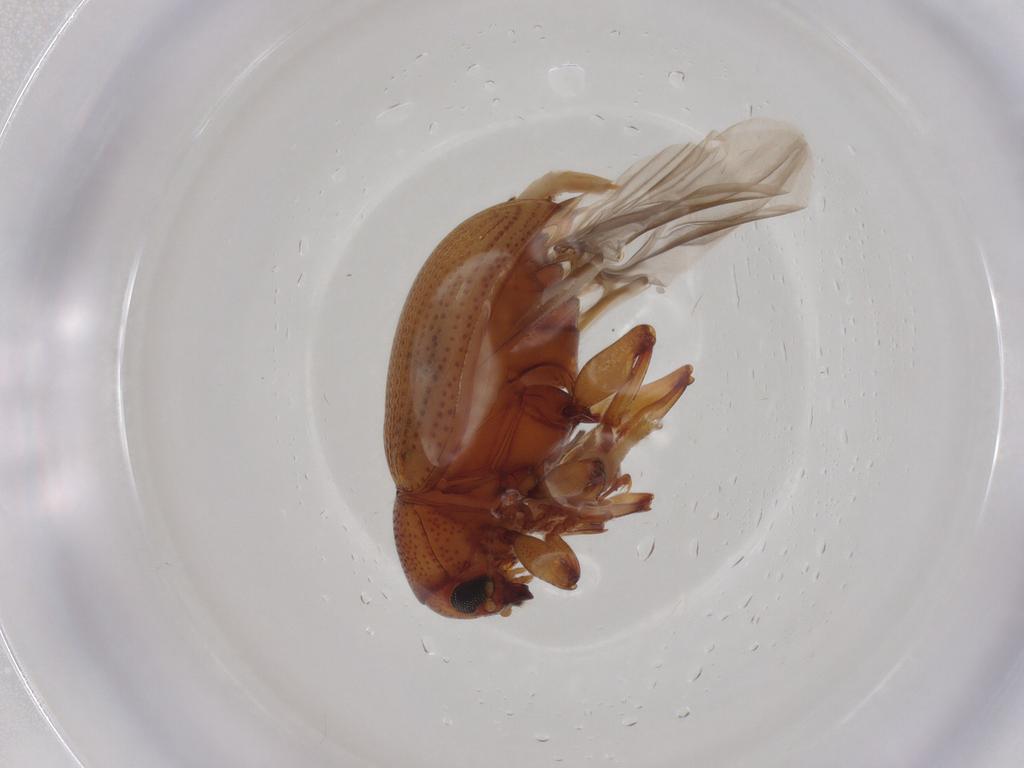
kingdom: Animalia
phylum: Arthropoda
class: Insecta
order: Coleoptera
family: Chrysomelidae
